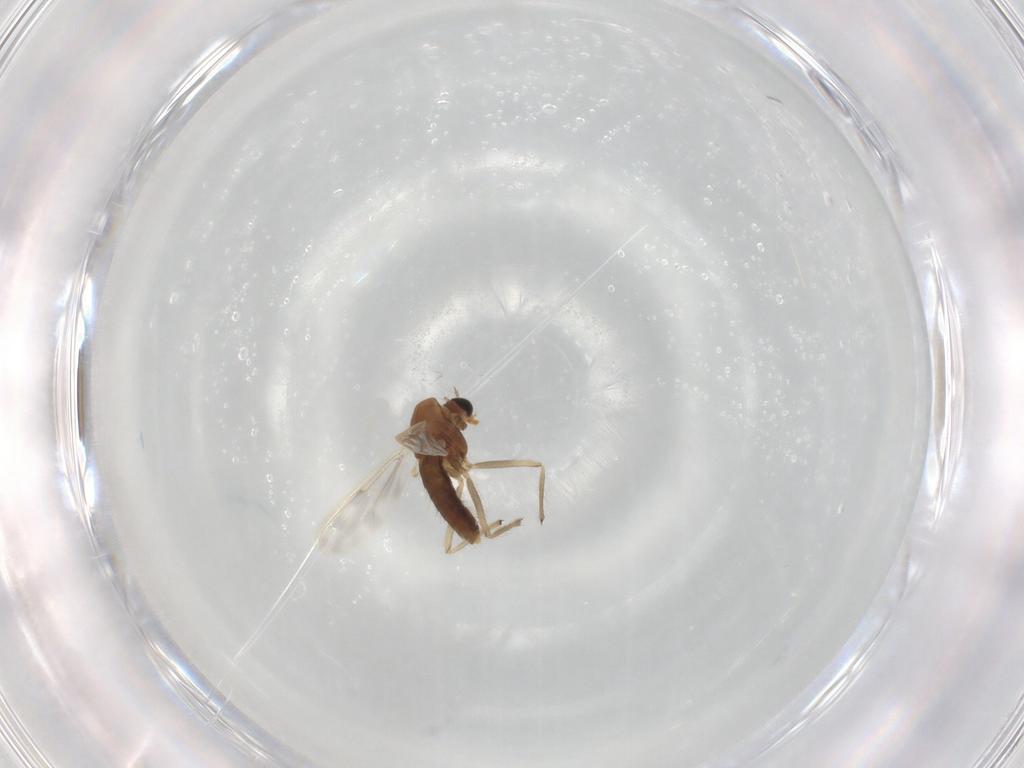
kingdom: Animalia
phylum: Arthropoda
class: Insecta
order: Diptera
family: Chironomidae
